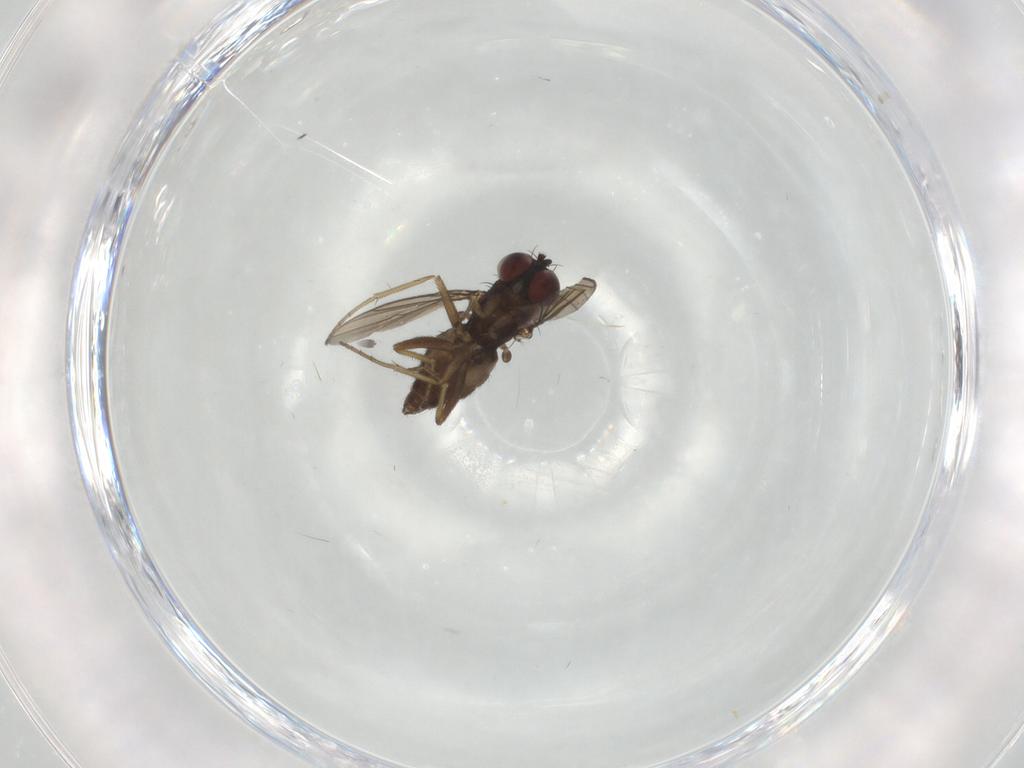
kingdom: Animalia
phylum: Arthropoda
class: Insecta
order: Diptera
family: Dolichopodidae
